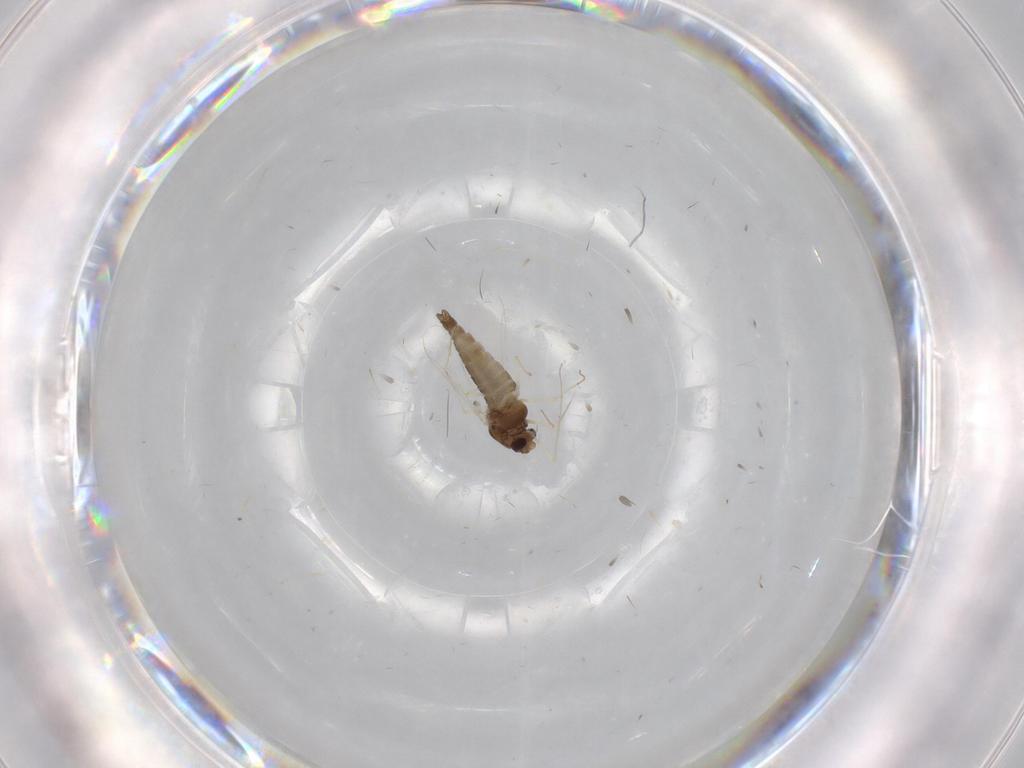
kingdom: Animalia
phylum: Arthropoda
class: Insecta
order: Diptera
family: Chironomidae
